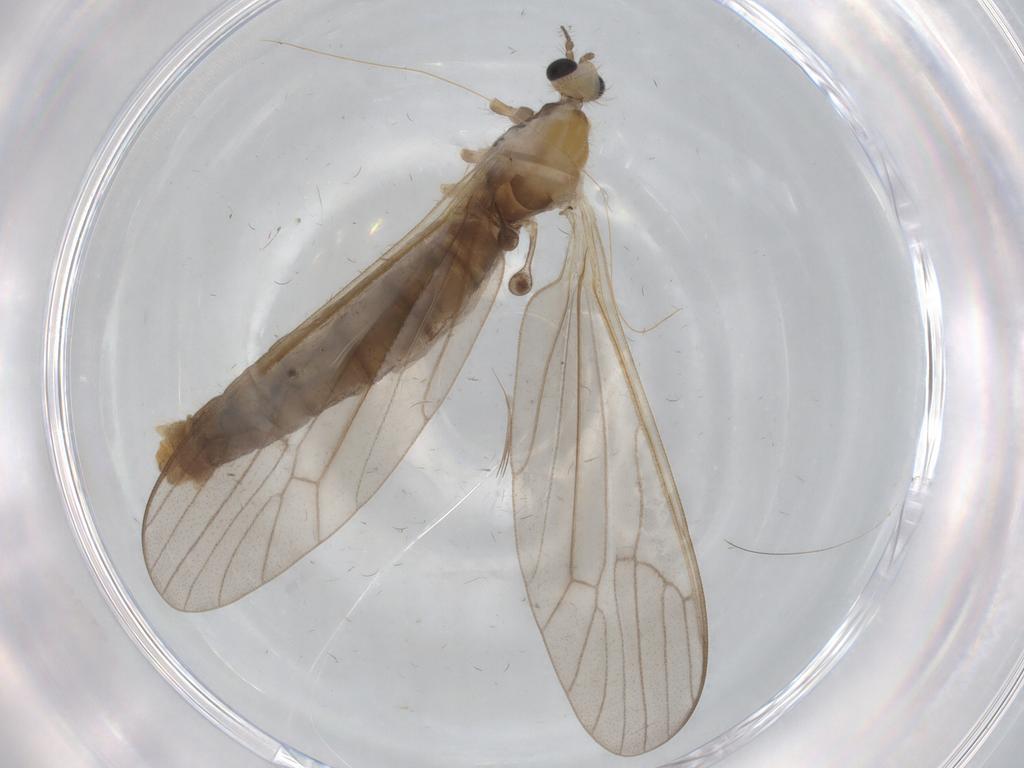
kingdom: Animalia
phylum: Arthropoda
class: Insecta
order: Diptera
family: Limoniidae
